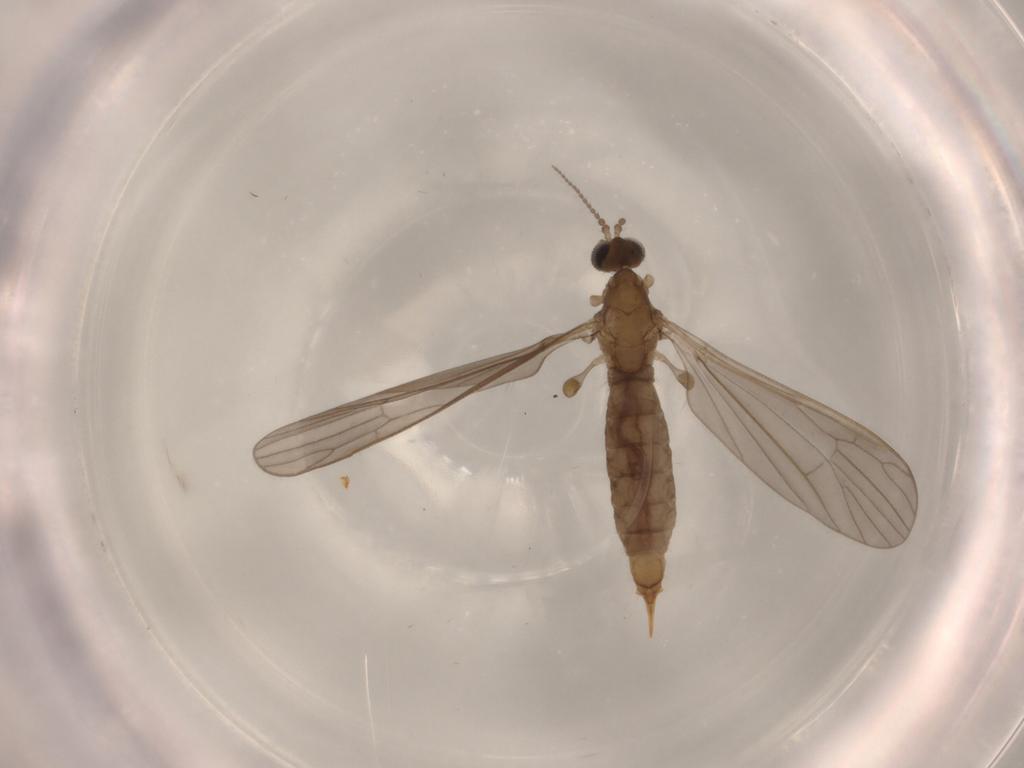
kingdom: Animalia
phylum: Arthropoda
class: Insecta
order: Diptera
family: Limoniidae
